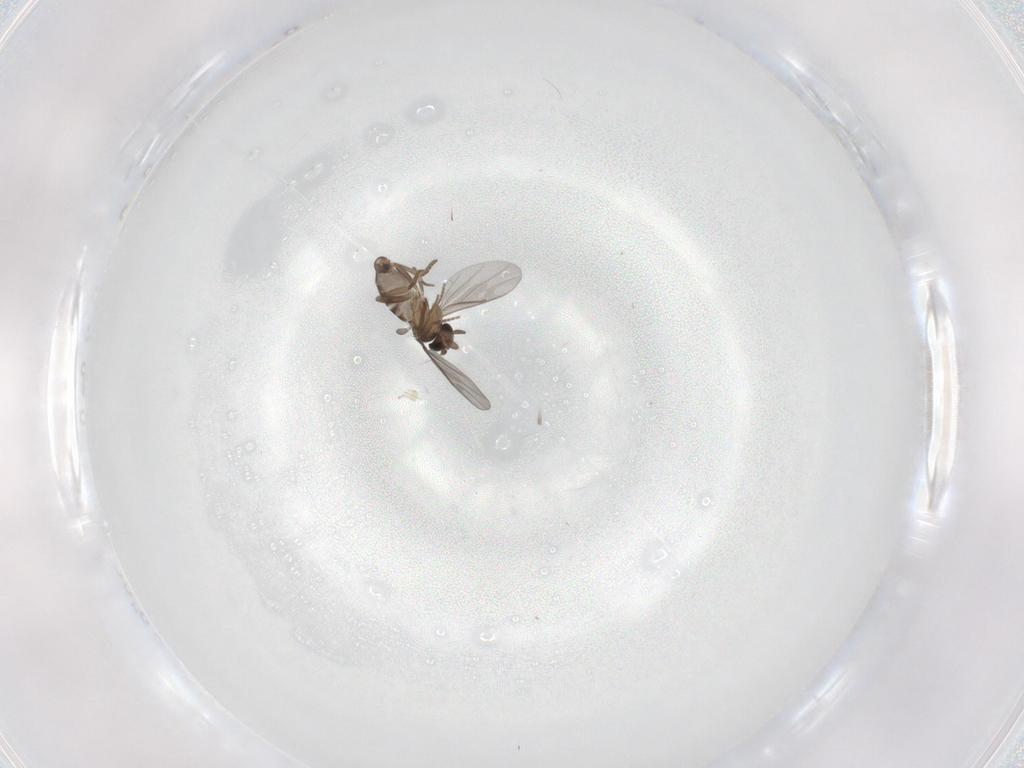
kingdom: Animalia
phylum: Arthropoda
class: Insecta
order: Diptera
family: Phoridae
